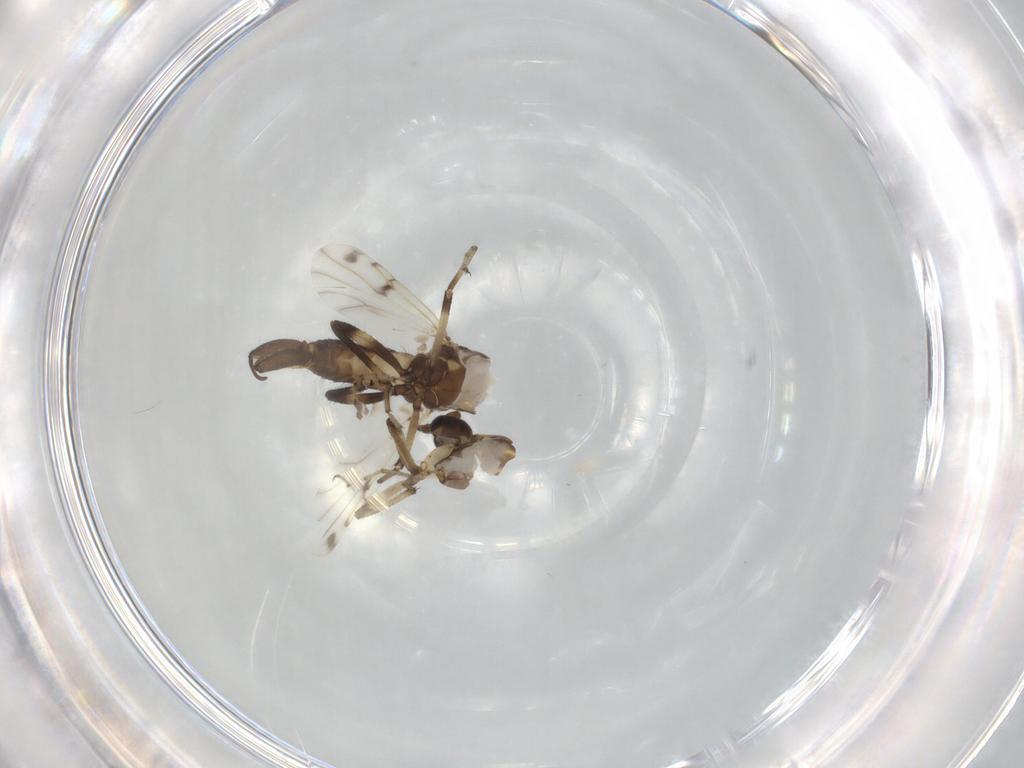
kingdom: Animalia
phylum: Arthropoda
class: Insecta
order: Diptera
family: Ceratopogonidae
